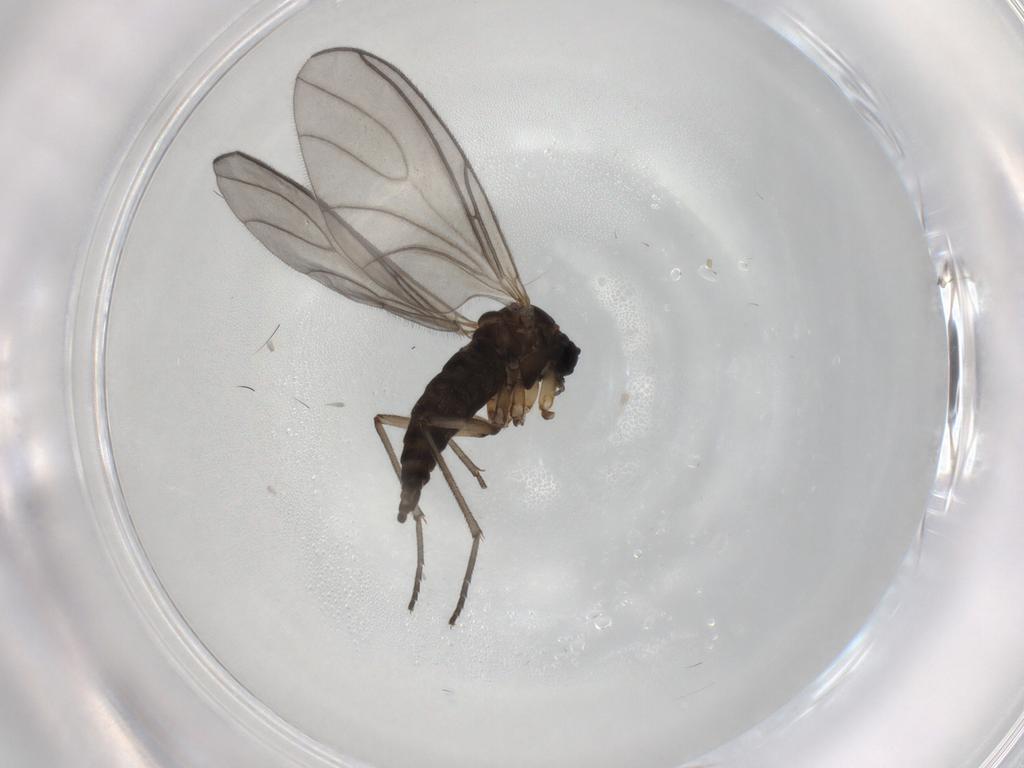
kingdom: Animalia
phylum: Arthropoda
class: Insecta
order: Diptera
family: Sciaridae
